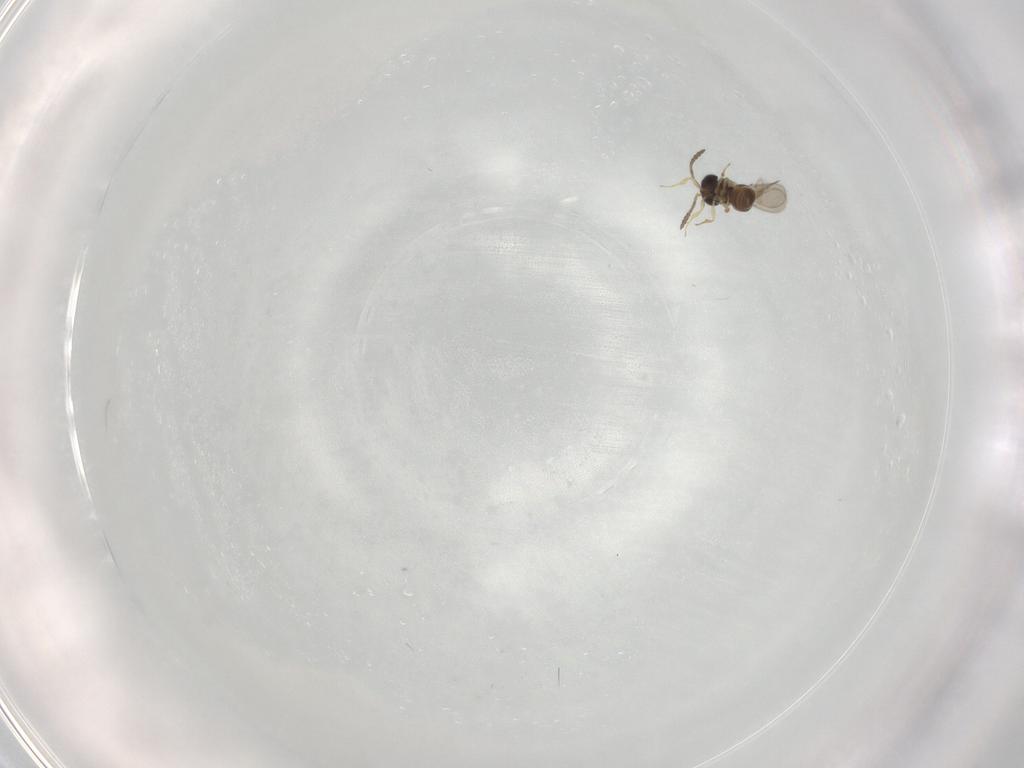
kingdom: Animalia
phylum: Arthropoda
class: Insecta
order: Hymenoptera
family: Scelionidae
